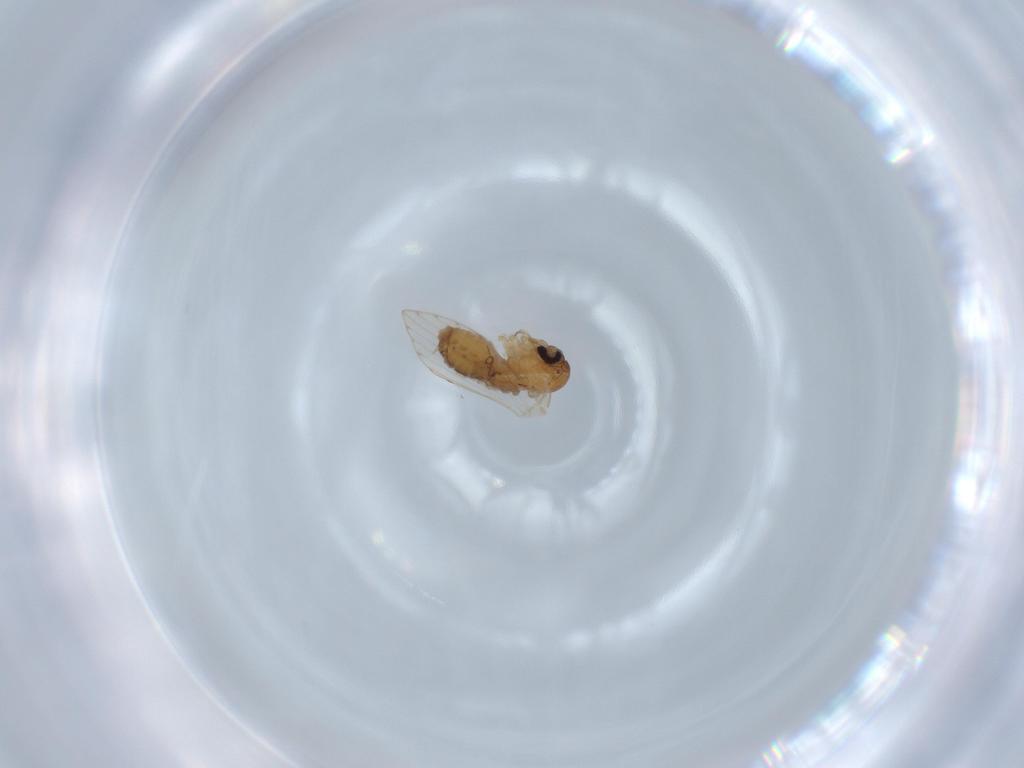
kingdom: Animalia
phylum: Arthropoda
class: Insecta
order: Diptera
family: Psychodidae
